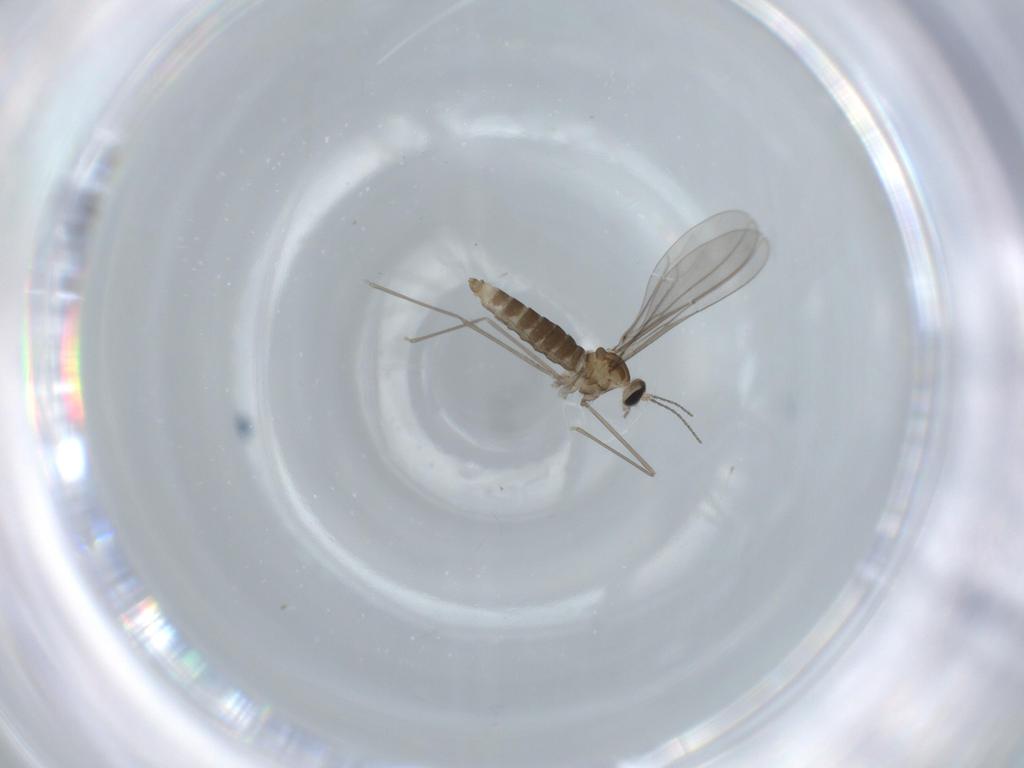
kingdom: Animalia
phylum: Arthropoda
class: Insecta
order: Diptera
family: Cecidomyiidae
